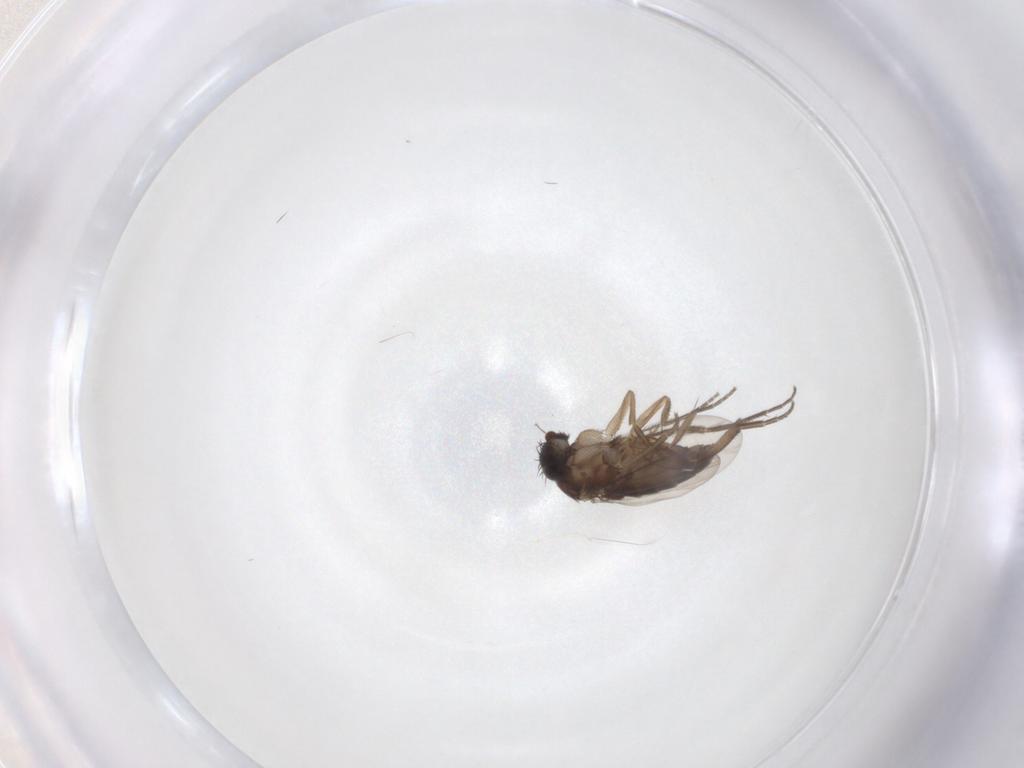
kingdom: Animalia
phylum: Arthropoda
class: Insecta
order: Diptera
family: Phoridae
